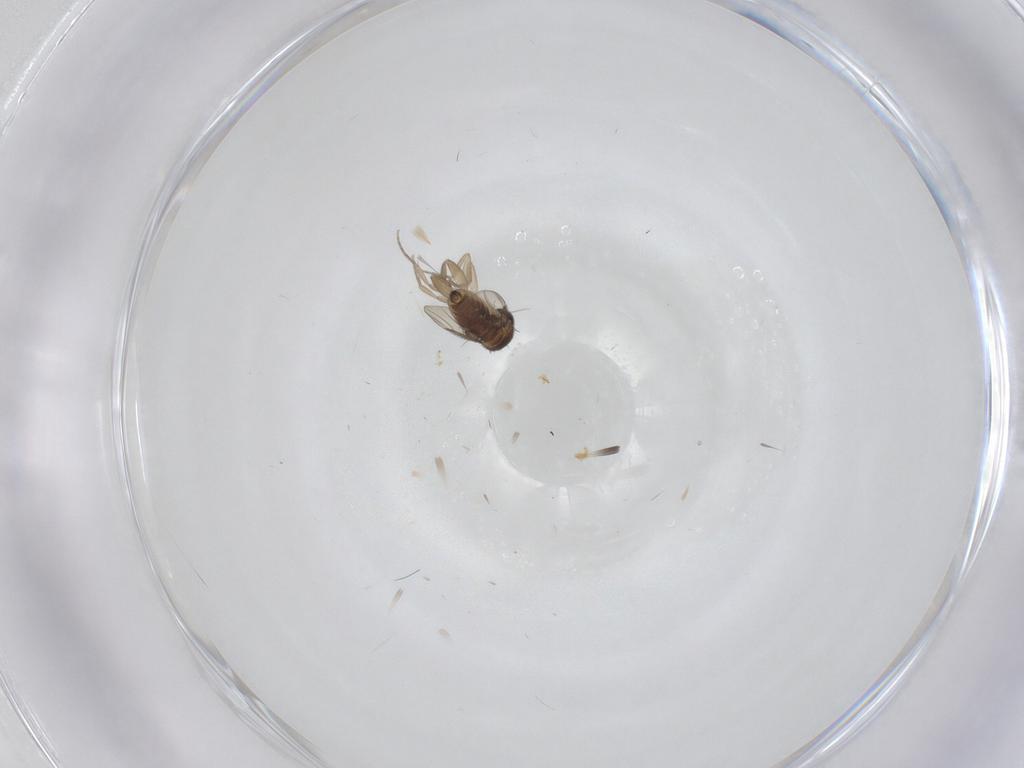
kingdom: Animalia
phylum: Arthropoda
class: Insecta
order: Diptera
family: Phoridae
